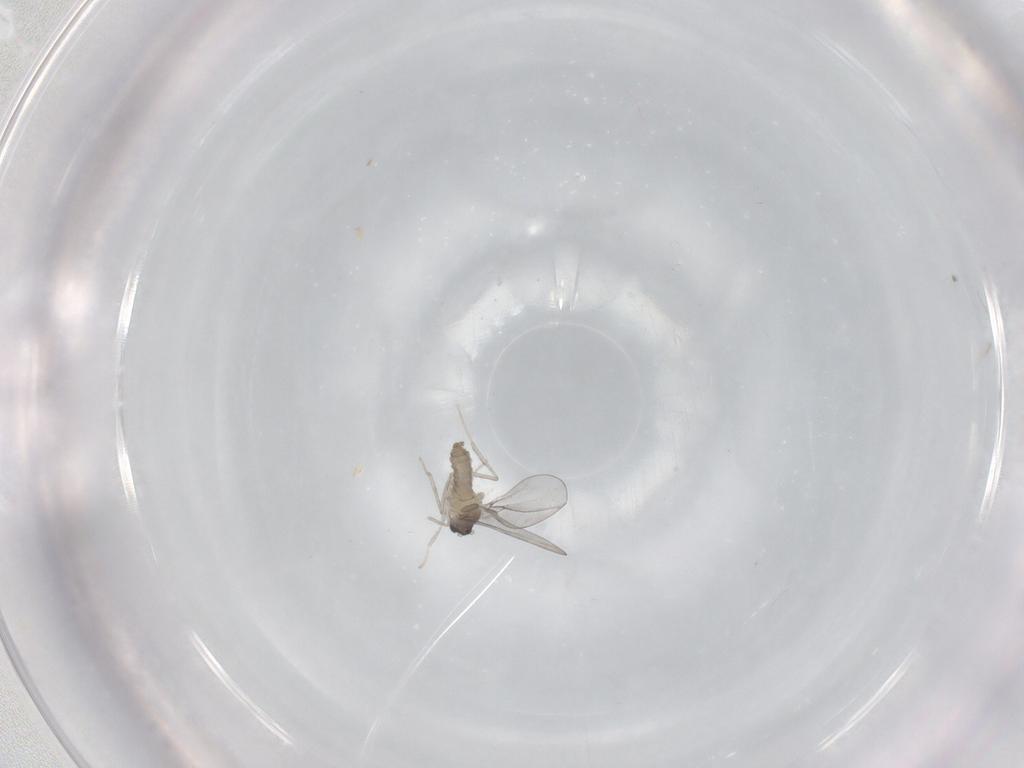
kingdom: Animalia
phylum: Arthropoda
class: Insecta
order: Diptera
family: Cecidomyiidae
